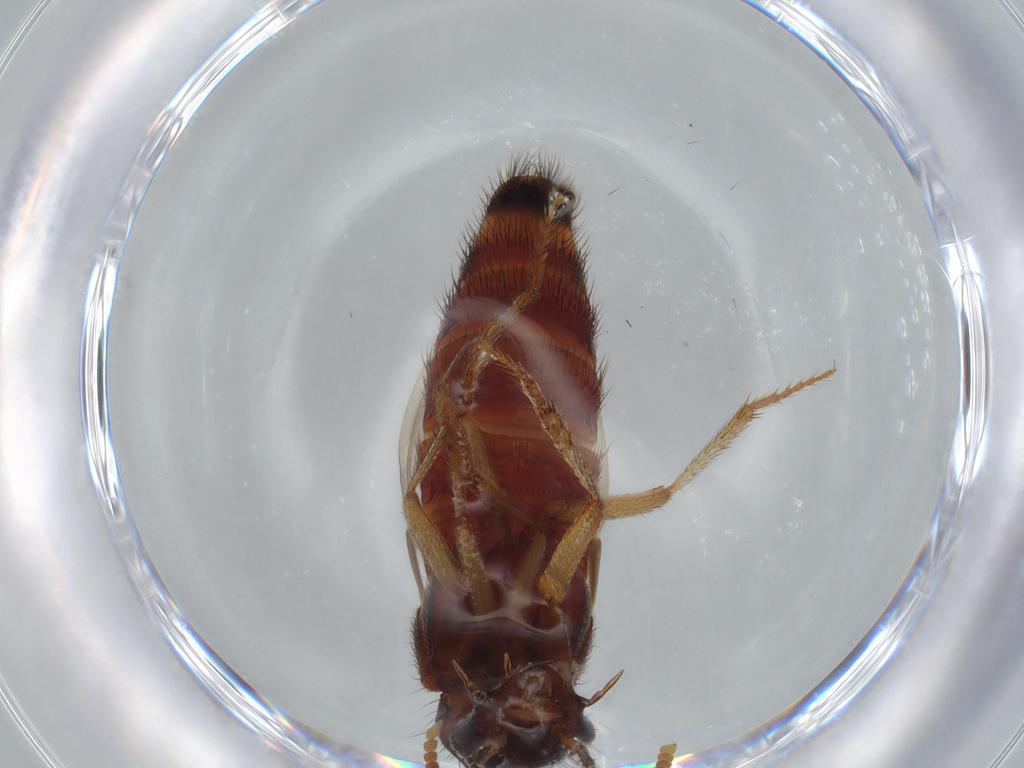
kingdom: Animalia
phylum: Arthropoda
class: Insecta
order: Coleoptera
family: Staphylinidae
